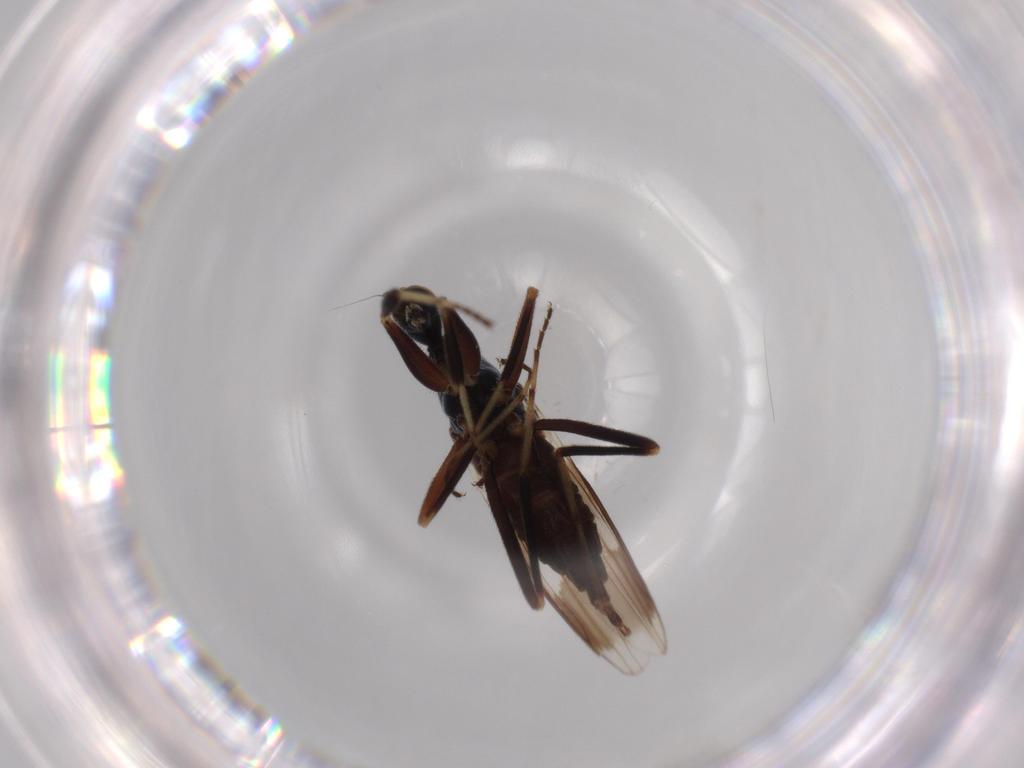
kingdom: Animalia
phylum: Arthropoda
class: Insecta
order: Diptera
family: Hybotidae
